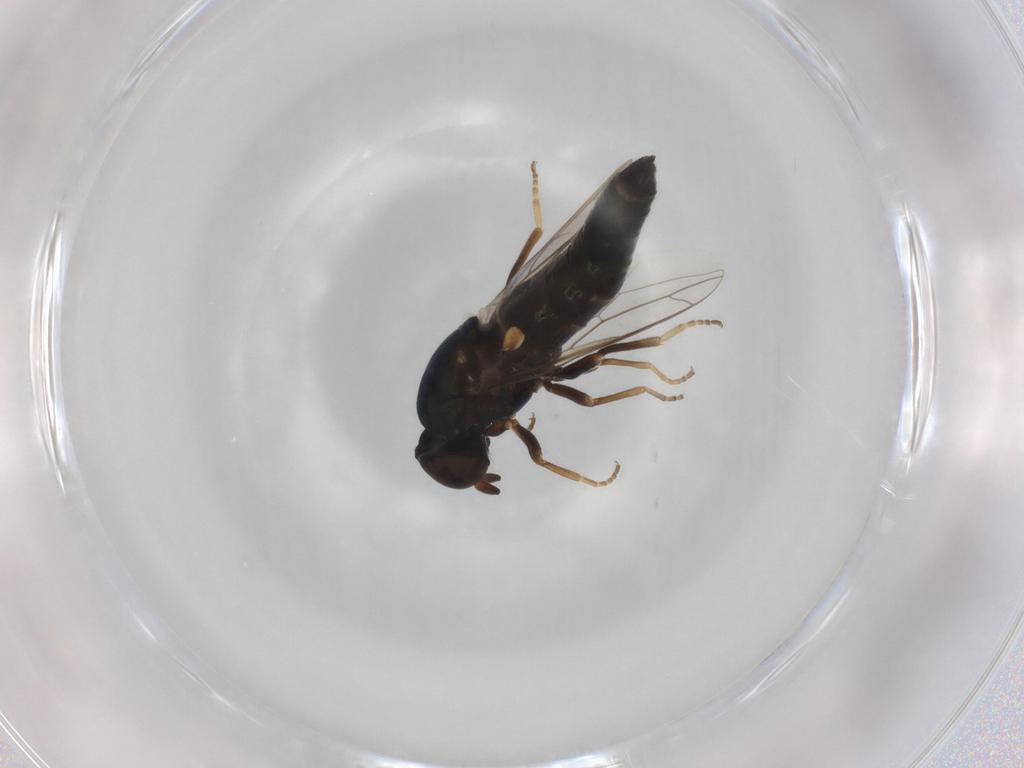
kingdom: Animalia
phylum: Arthropoda
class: Insecta
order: Diptera
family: Scenopinidae
